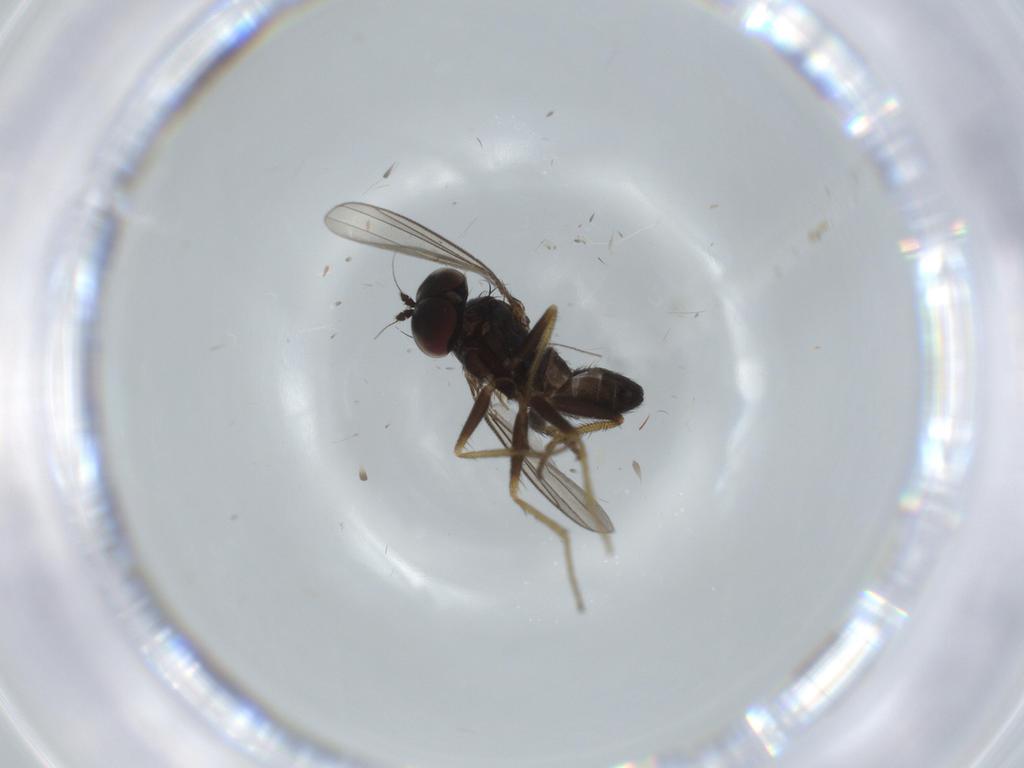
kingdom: Animalia
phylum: Arthropoda
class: Insecta
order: Diptera
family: Chironomidae
